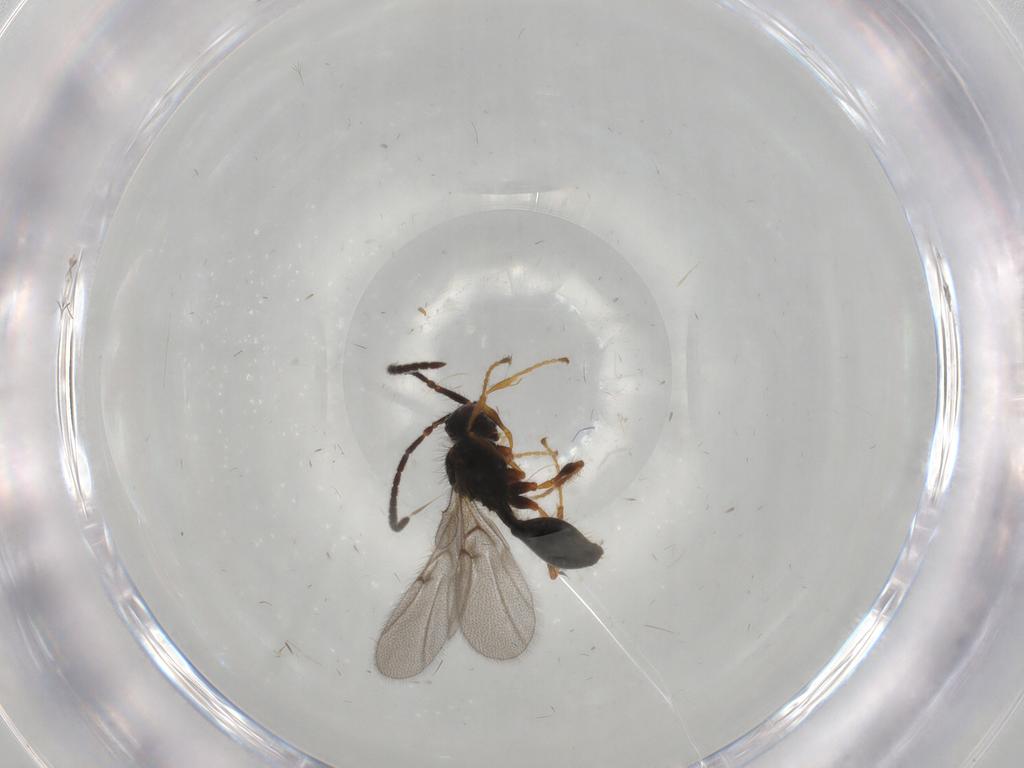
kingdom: Animalia
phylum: Arthropoda
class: Insecta
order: Hymenoptera
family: Diapriidae
